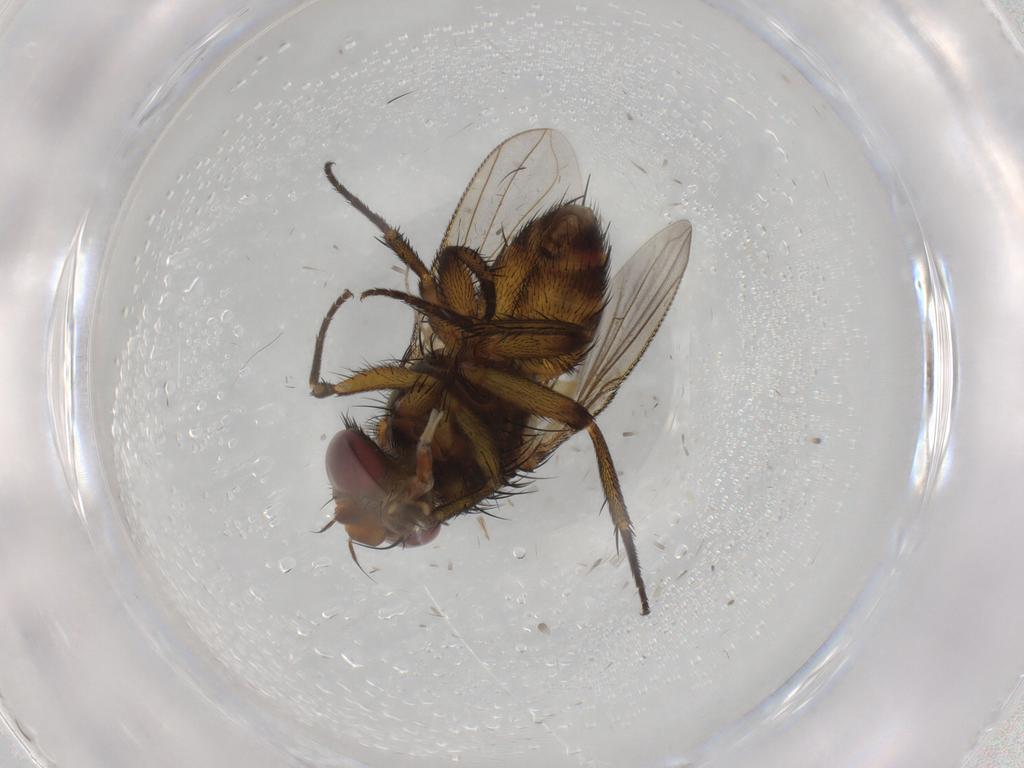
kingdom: Animalia
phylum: Arthropoda
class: Insecta
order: Diptera
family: Tachinidae
